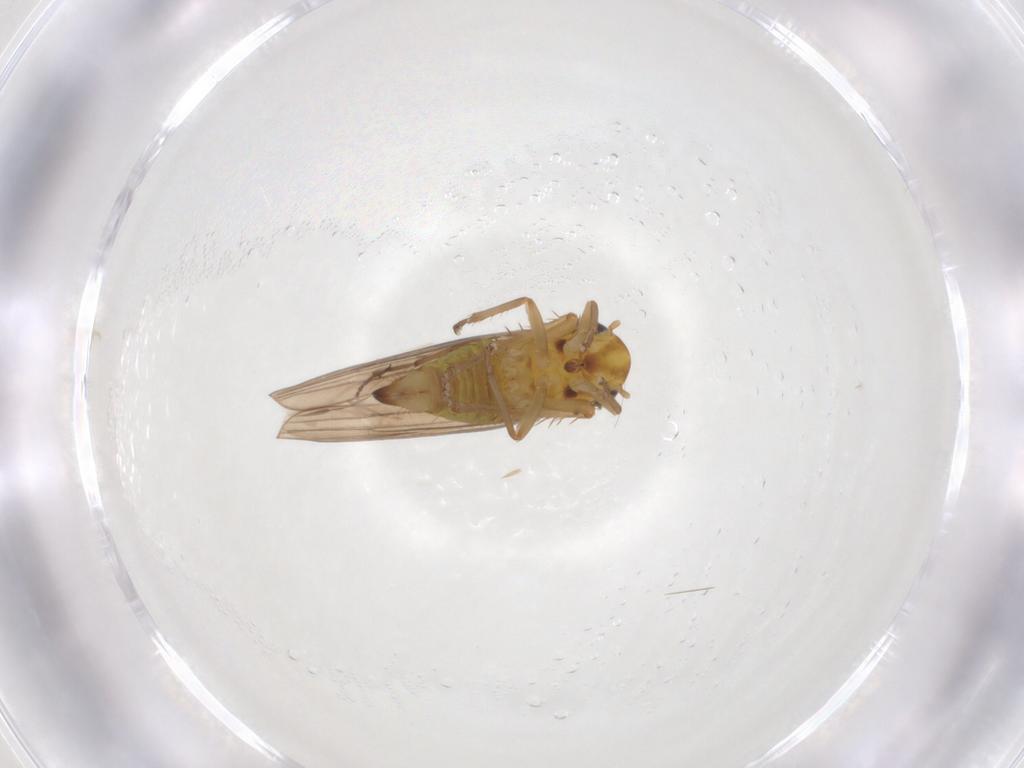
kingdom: Animalia
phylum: Arthropoda
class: Insecta
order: Hemiptera
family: Cicadellidae
